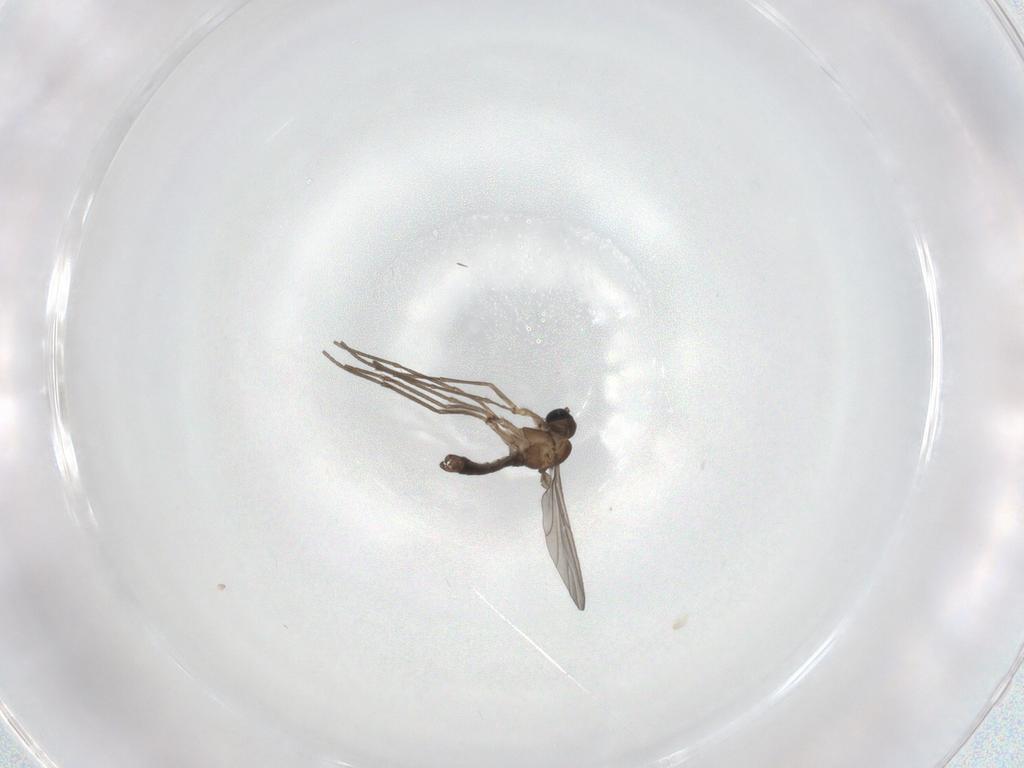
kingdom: Animalia
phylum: Arthropoda
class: Insecta
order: Diptera
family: Sciaridae
